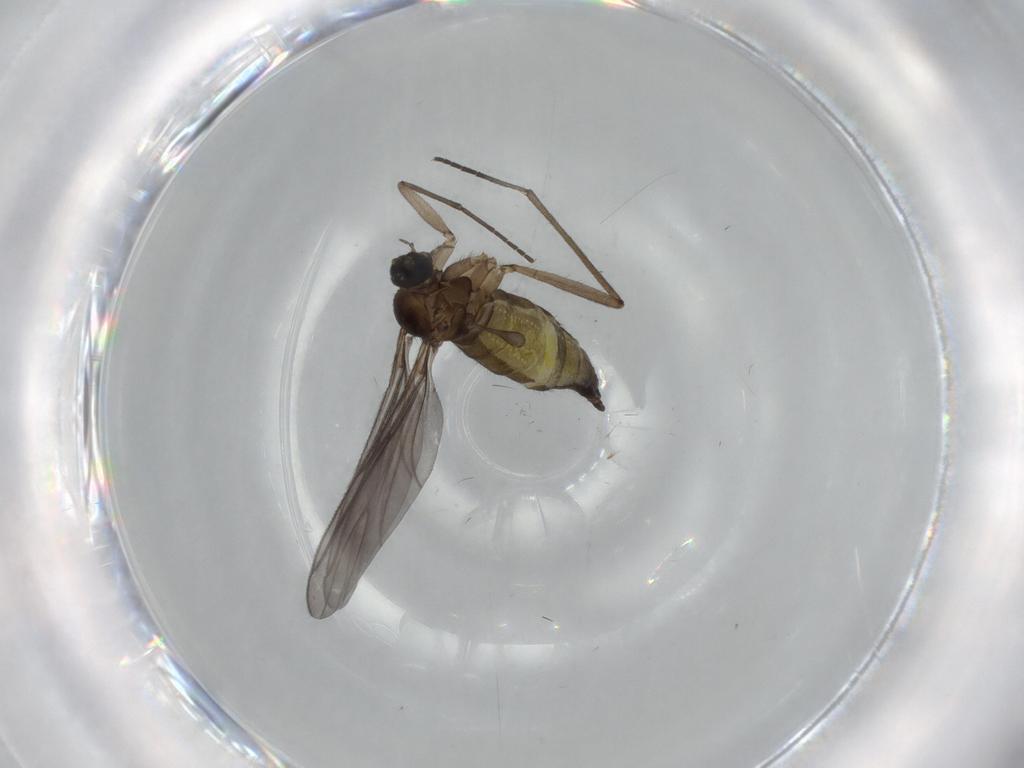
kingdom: Animalia
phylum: Arthropoda
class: Insecta
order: Diptera
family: Sciaridae
